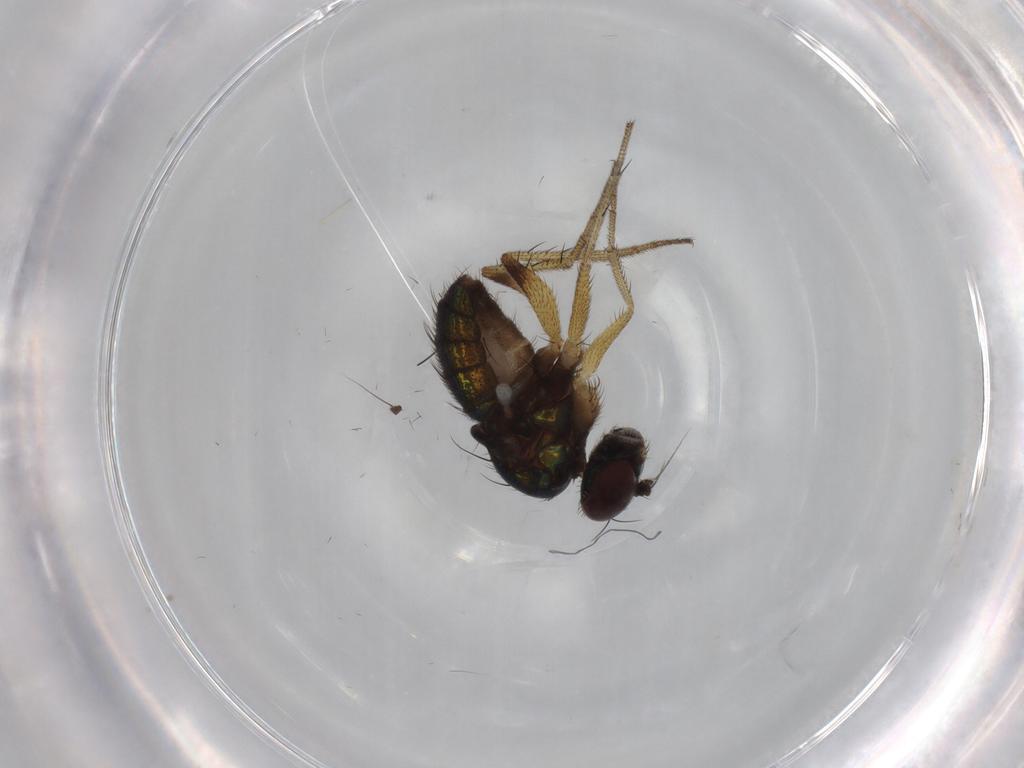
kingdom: Animalia
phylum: Arthropoda
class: Insecta
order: Diptera
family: Dolichopodidae
